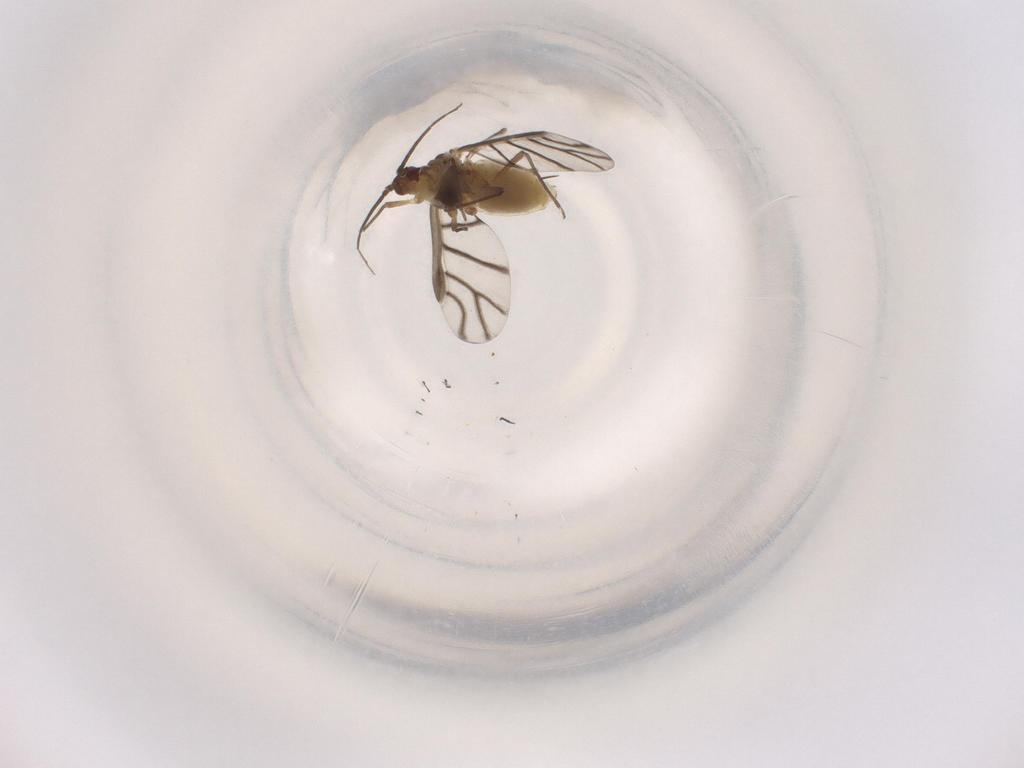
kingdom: Animalia
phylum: Arthropoda
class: Insecta
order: Hemiptera
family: Aphididae
